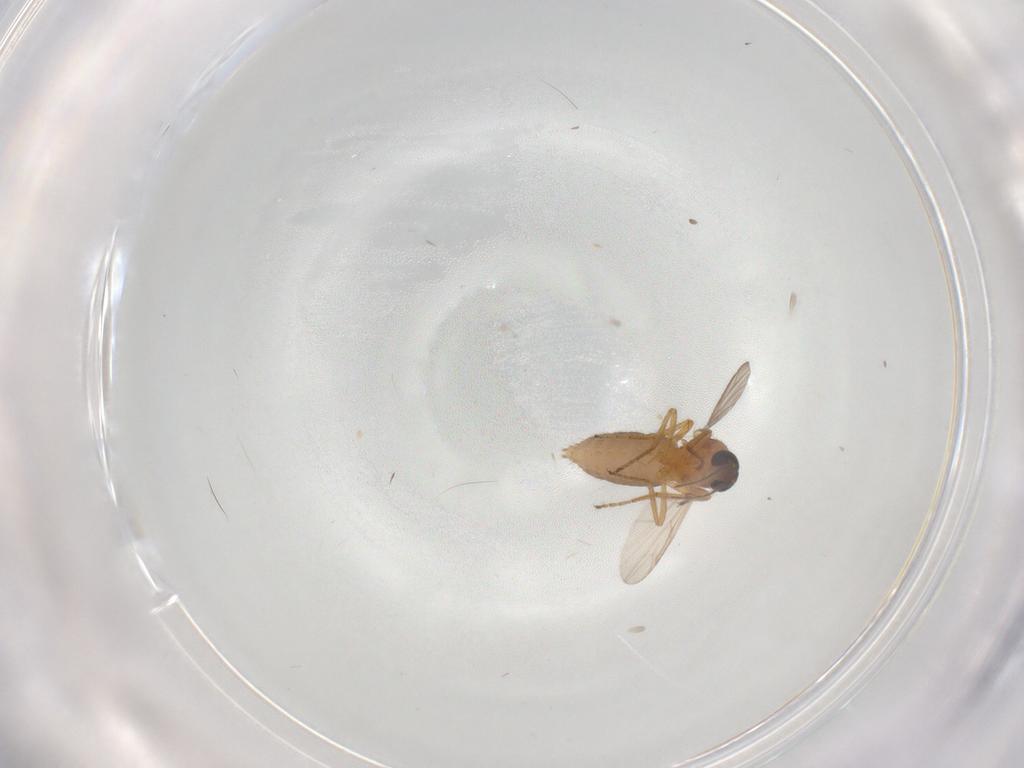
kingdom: Animalia
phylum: Arthropoda
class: Insecta
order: Diptera
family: Ceratopogonidae
